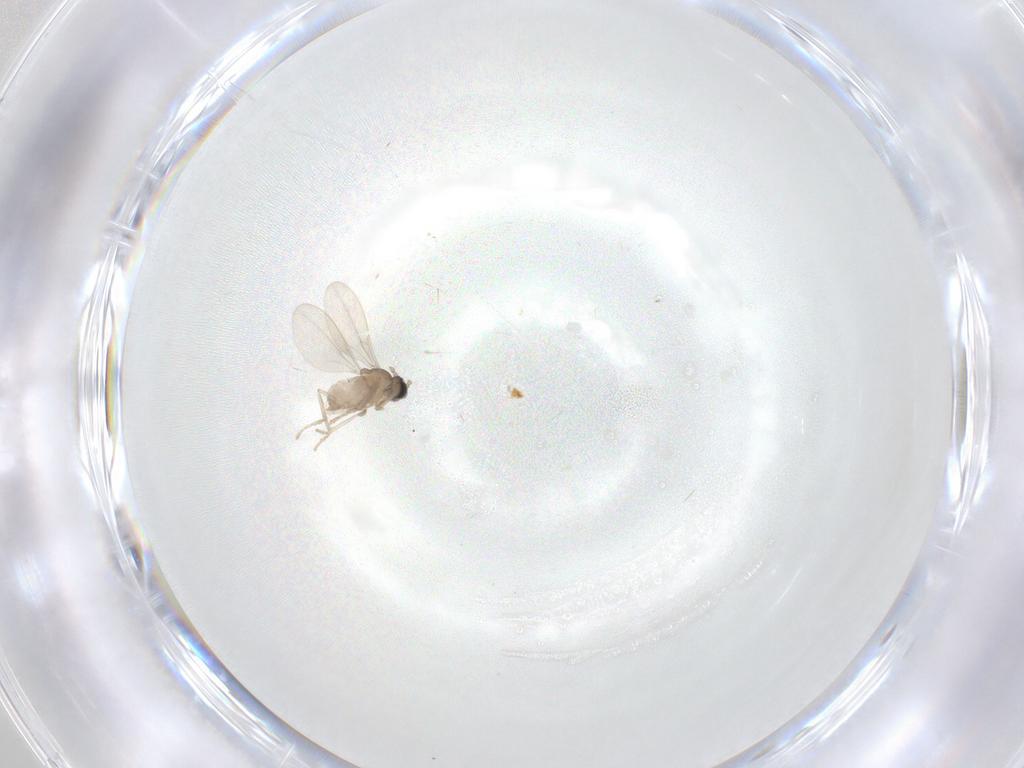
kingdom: Animalia
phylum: Arthropoda
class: Insecta
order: Diptera
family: Cecidomyiidae
